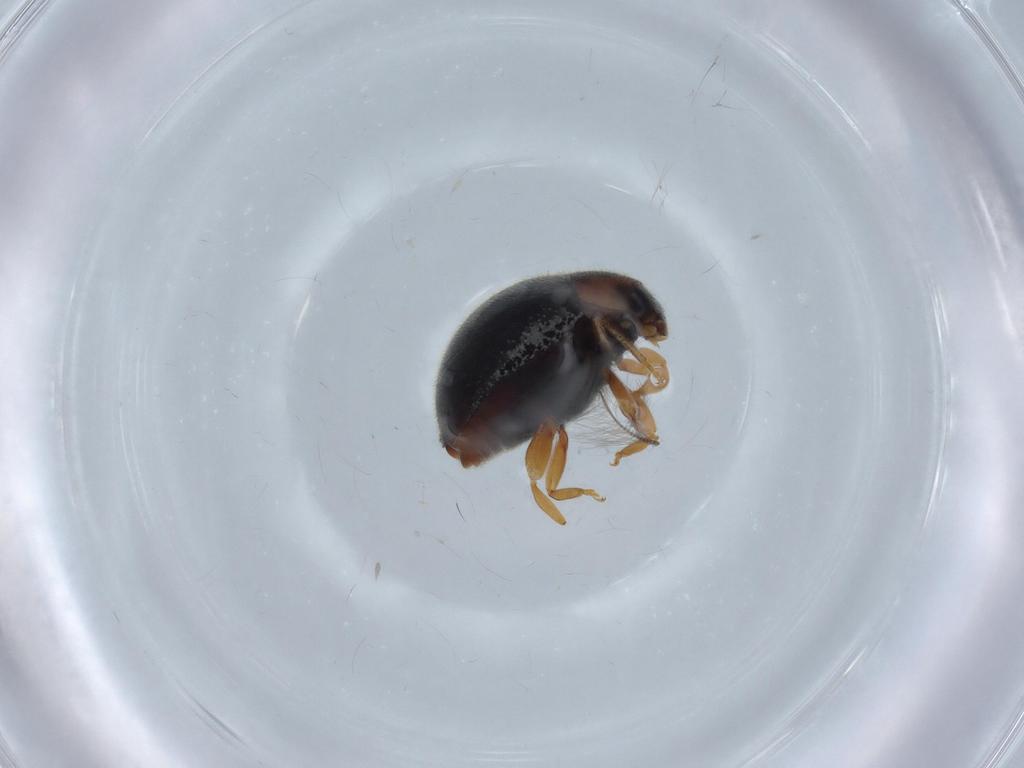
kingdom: Animalia
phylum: Arthropoda
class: Insecta
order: Coleoptera
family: Coccinellidae
